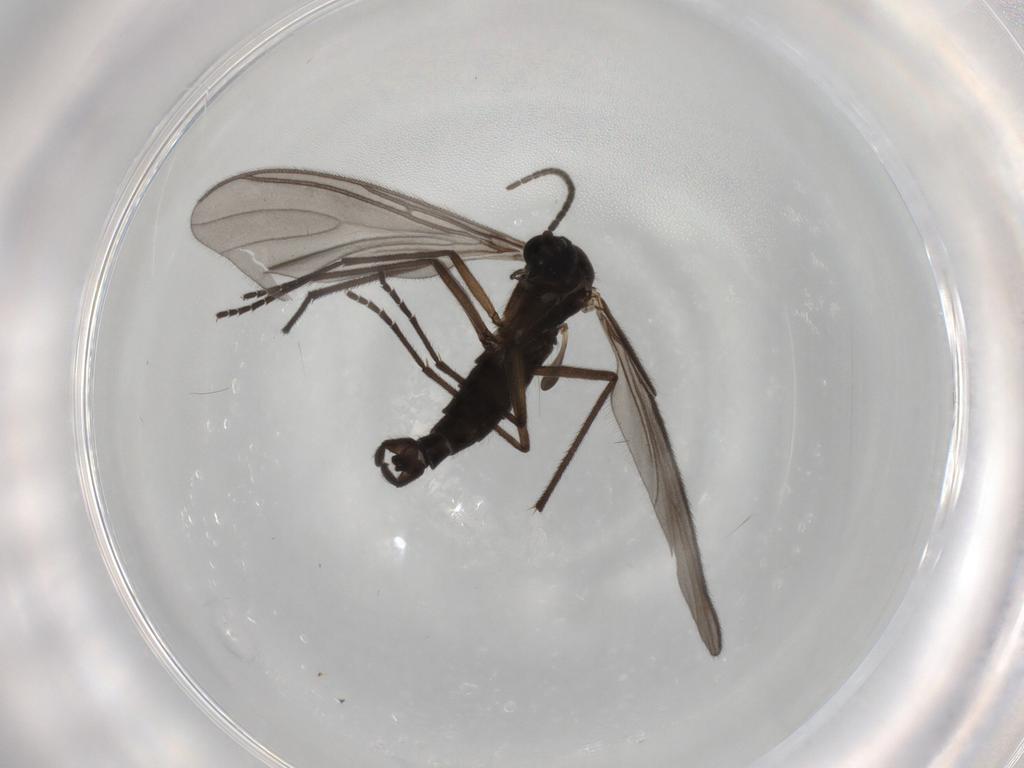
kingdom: Animalia
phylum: Arthropoda
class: Insecta
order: Diptera
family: Sciaridae
